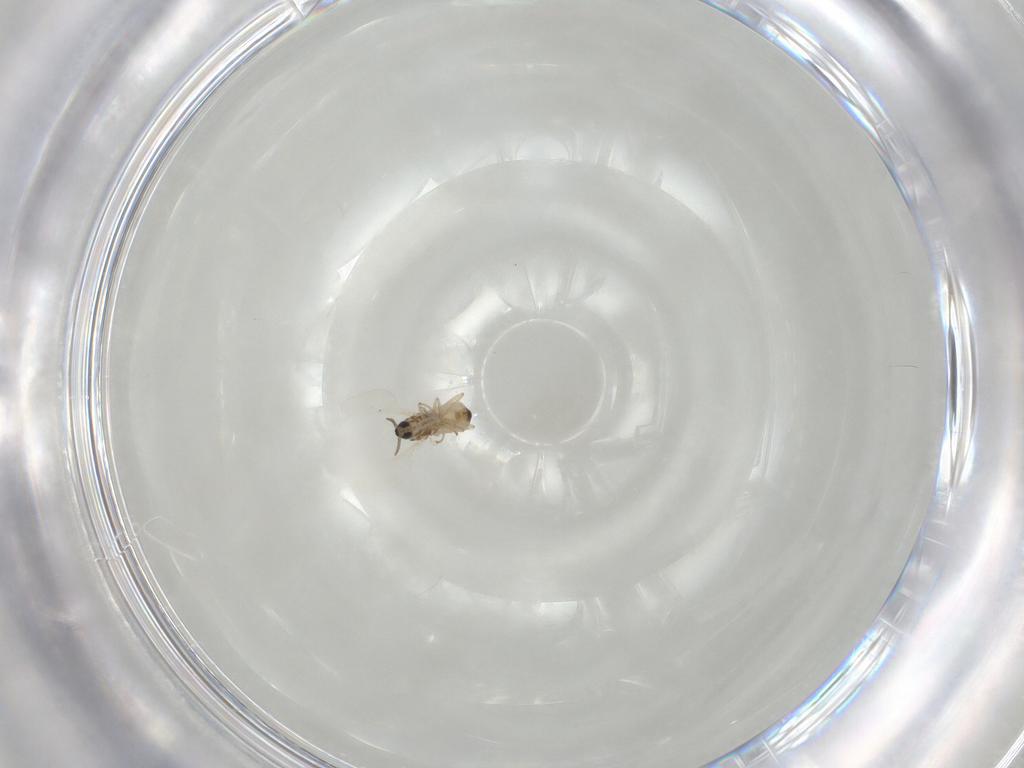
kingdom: Animalia
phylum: Arthropoda
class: Insecta
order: Diptera
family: Cecidomyiidae
